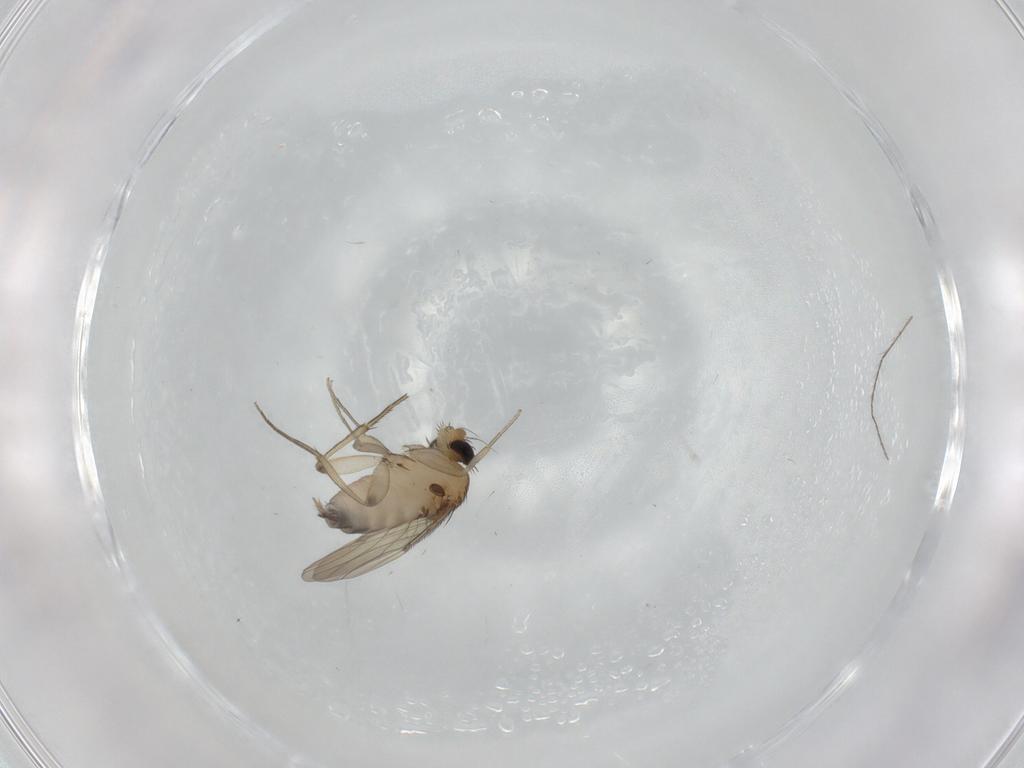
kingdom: Animalia
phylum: Arthropoda
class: Insecta
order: Diptera
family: Phoridae
